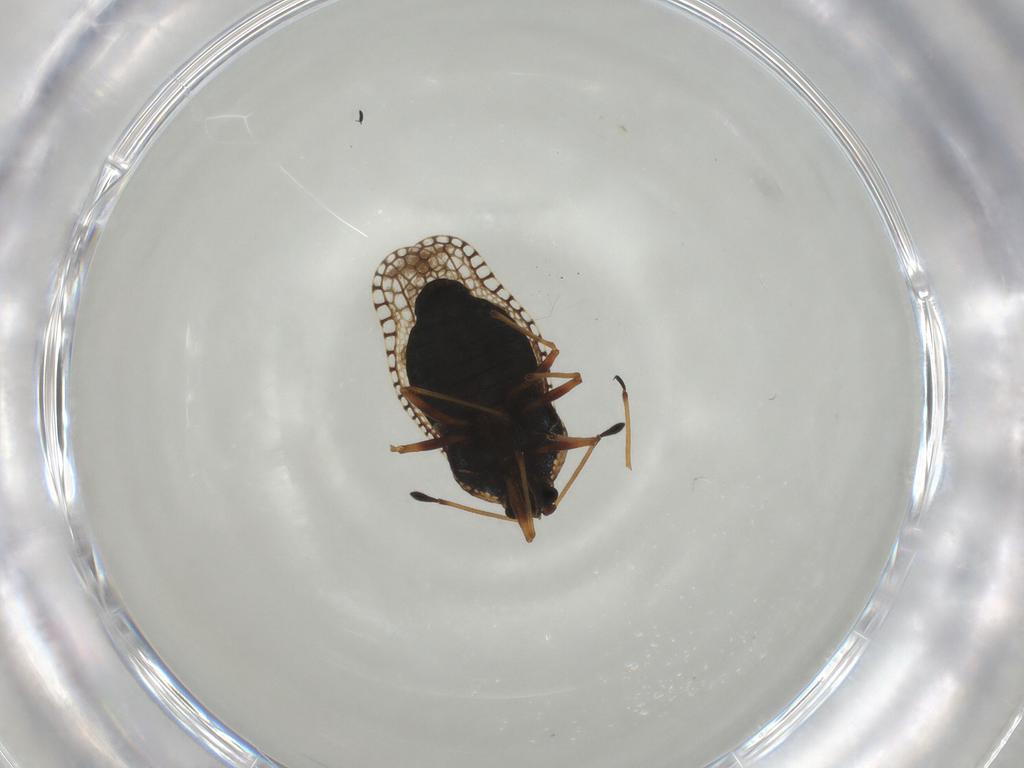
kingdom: Animalia
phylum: Arthropoda
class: Insecta
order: Hemiptera
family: Tingidae
